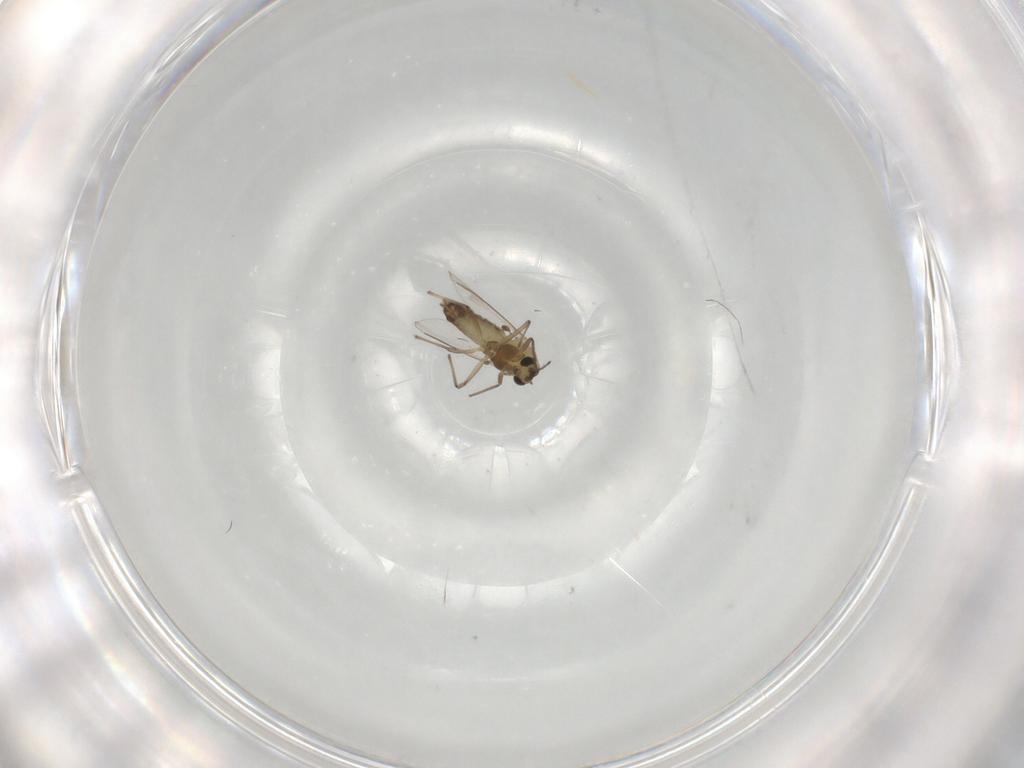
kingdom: Animalia
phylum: Arthropoda
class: Insecta
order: Diptera
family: Chironomidae
